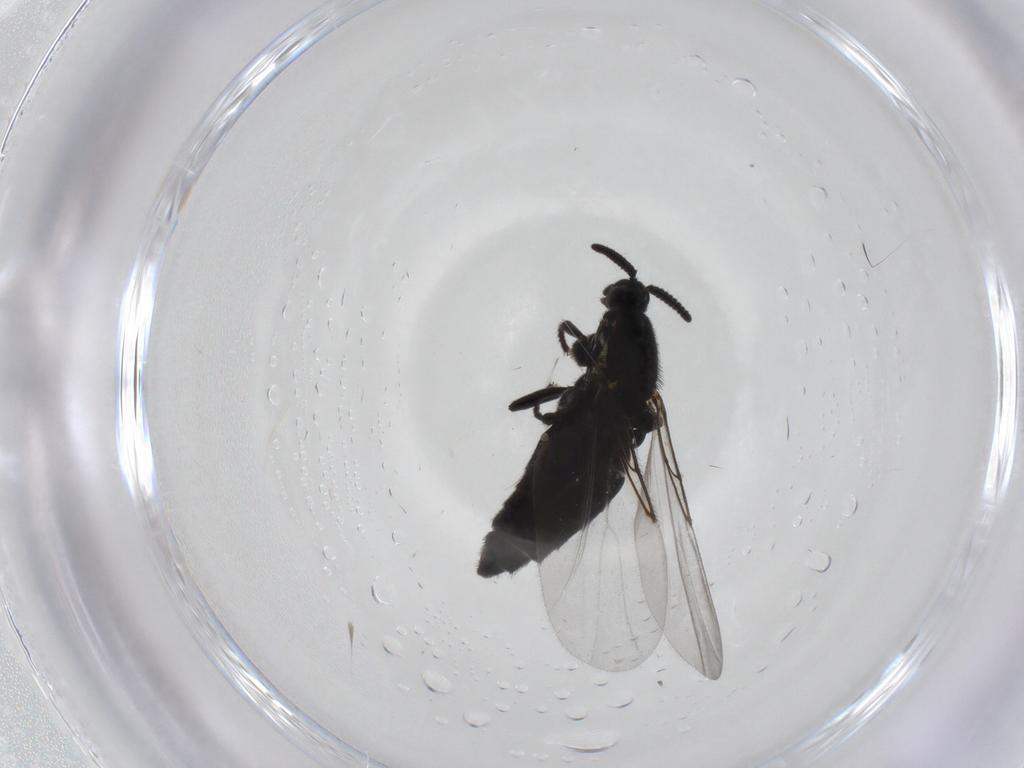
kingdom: Animalia
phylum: Arthropoda
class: Insecta
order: Diptera
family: Scatopsidae
